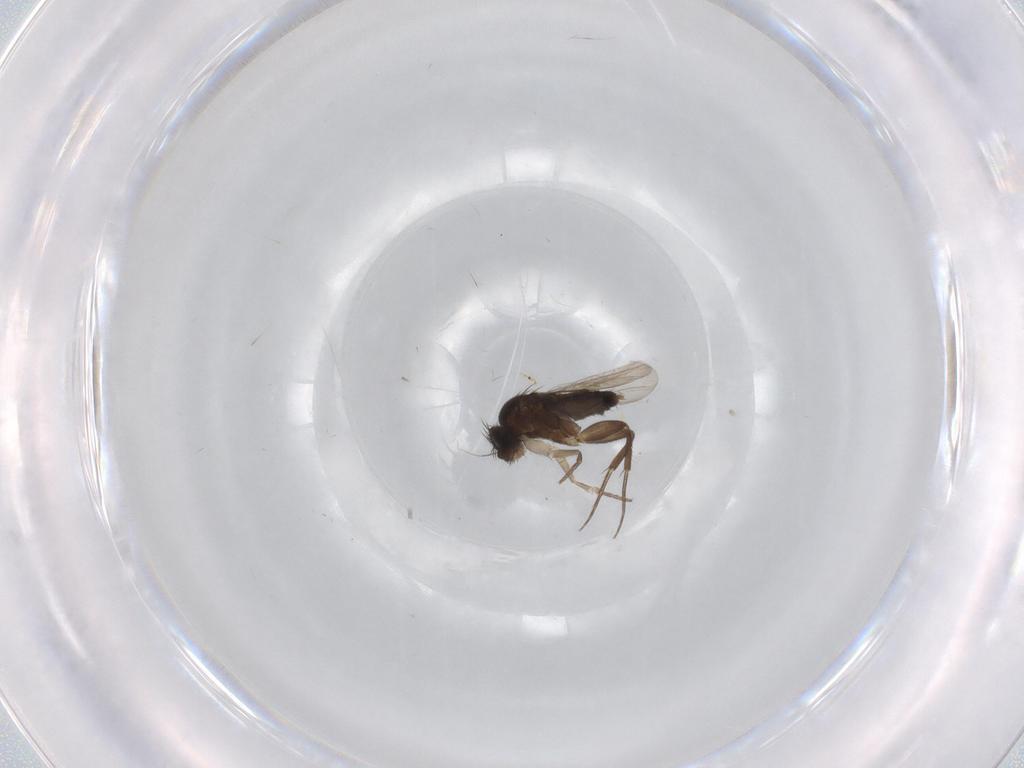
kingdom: Animalia
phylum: Arthropoda
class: Insecta
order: Diptera
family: Phoridae
